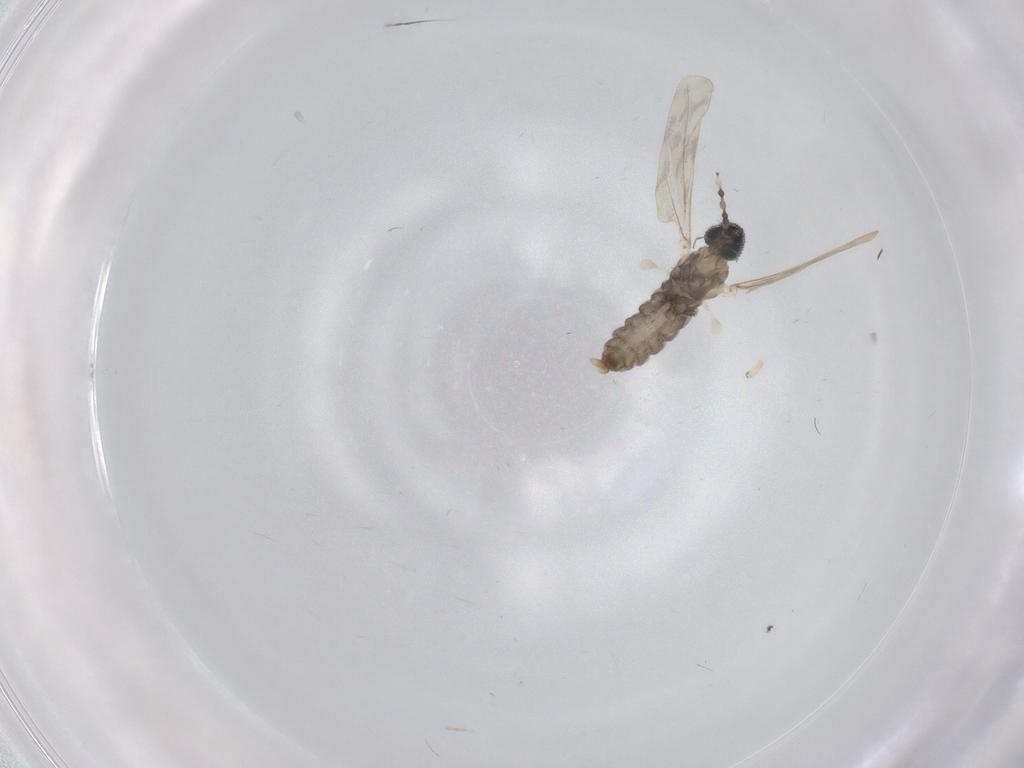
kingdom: Animalia
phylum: Arthropoda
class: Insecta
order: Diptera
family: Cecidomyiidae
